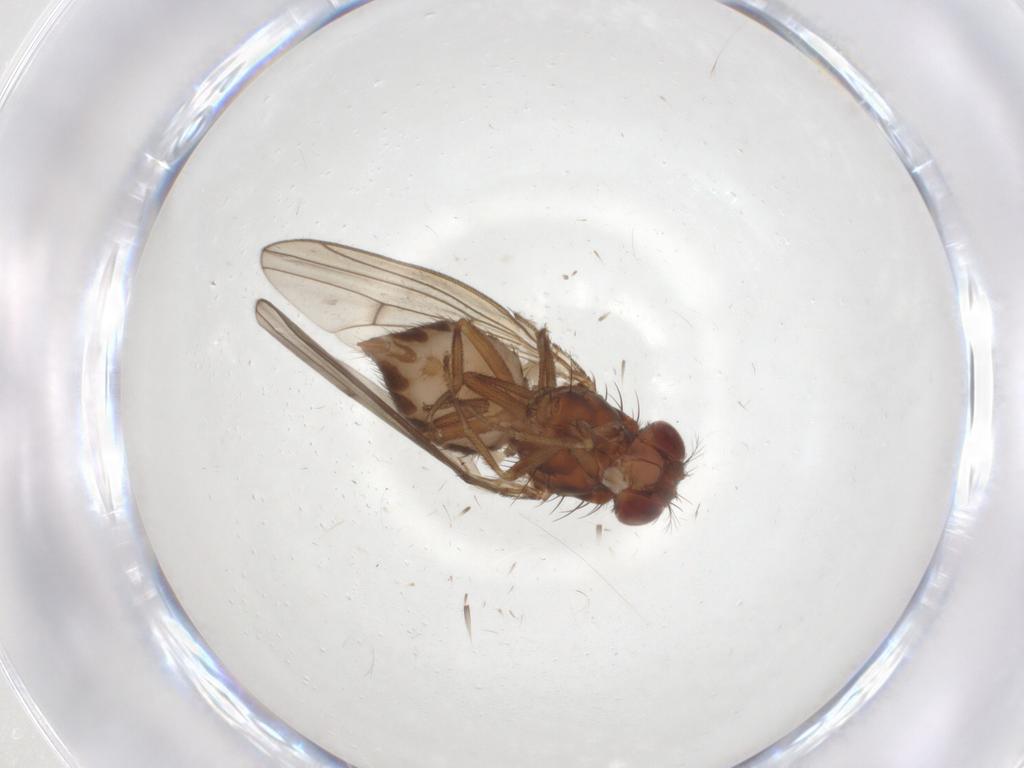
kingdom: Animalia
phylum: Arthropoda
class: Insecta
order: Diptera
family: Drosophilidae
